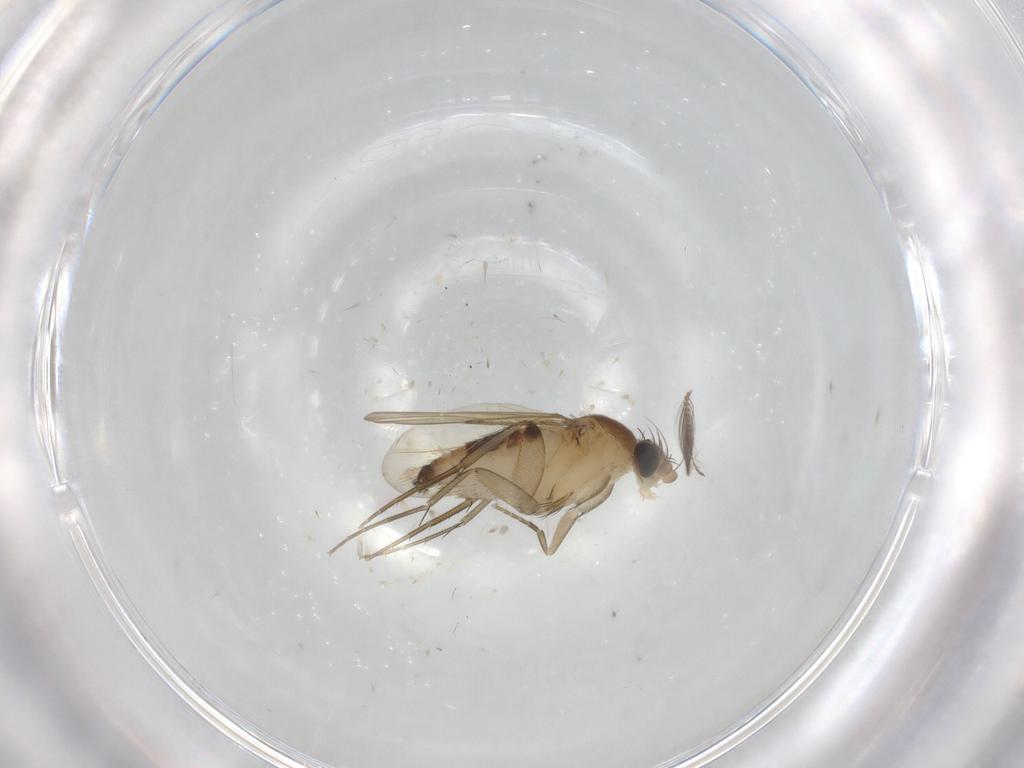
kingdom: Animalia
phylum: Arthropoda
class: Insecta
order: Diptera
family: Phoridae
